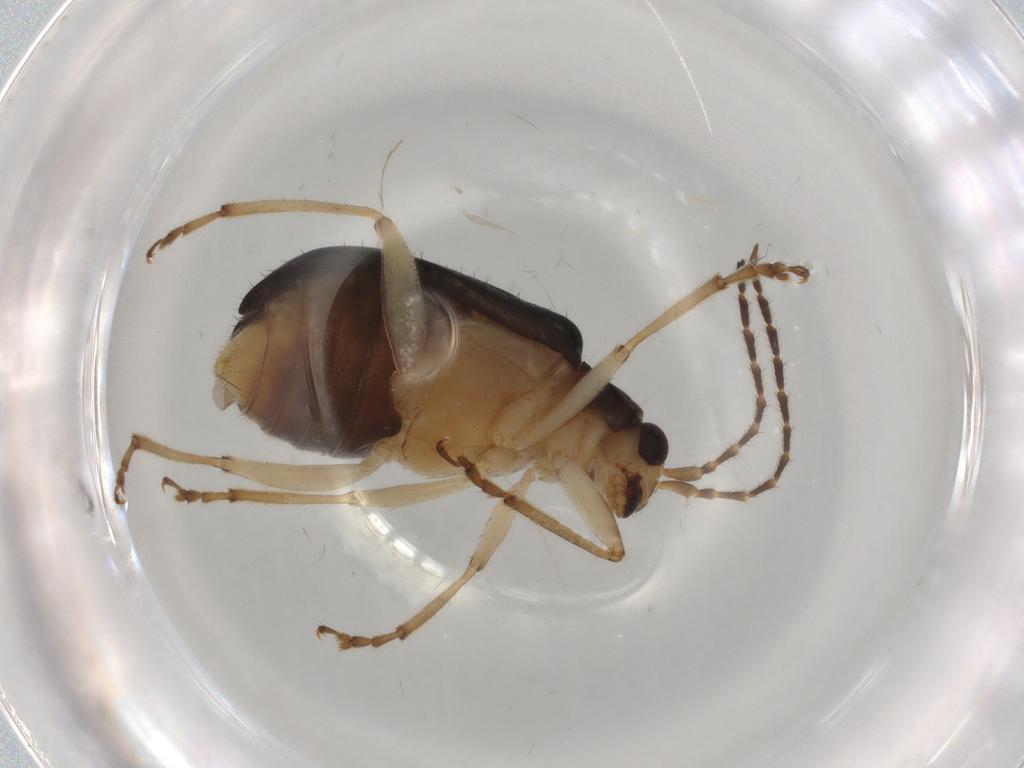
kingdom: Animalia
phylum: Arthropoda
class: Insecta
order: Coleoptera
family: Chrysomelidae
